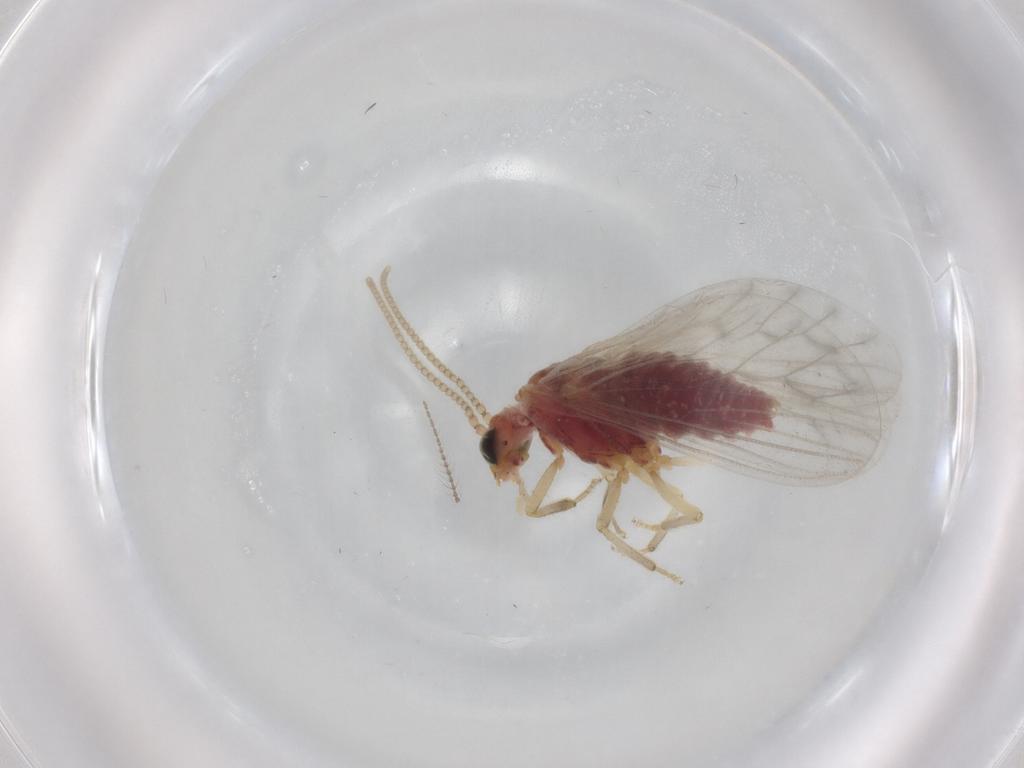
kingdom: Animalia
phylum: Arthropoda
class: Insecta
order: Neuroptera
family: Coniopterygidae
